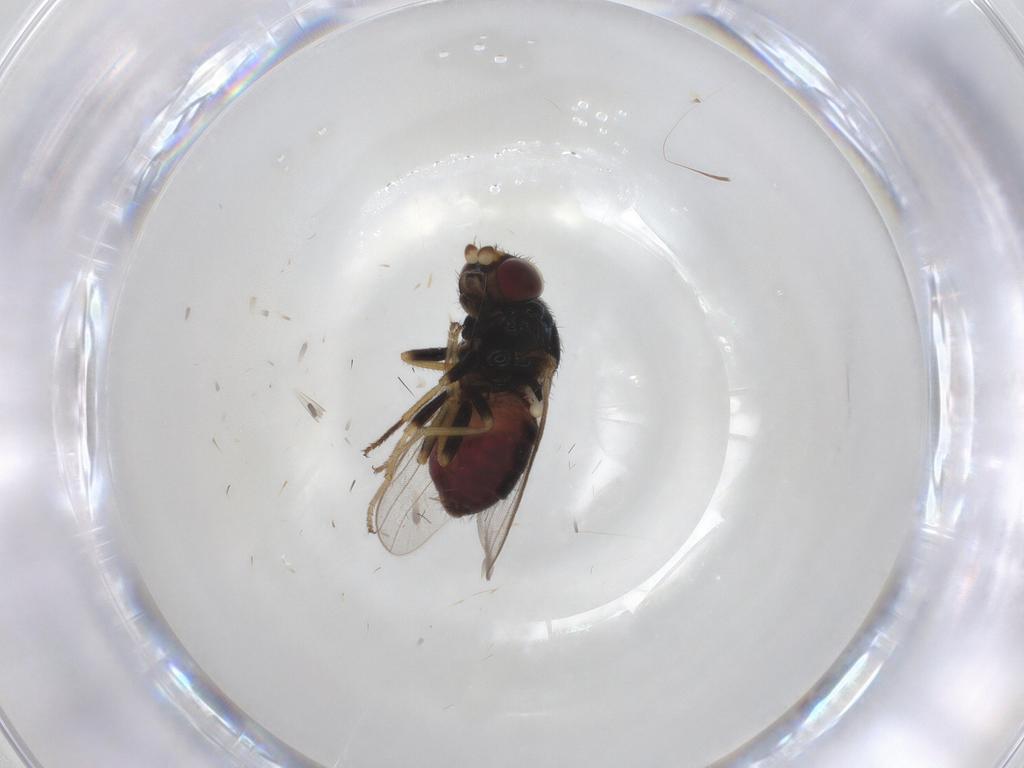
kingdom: Animalia
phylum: Arthropoda
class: Insecta
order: Diptera
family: Chloropidae
